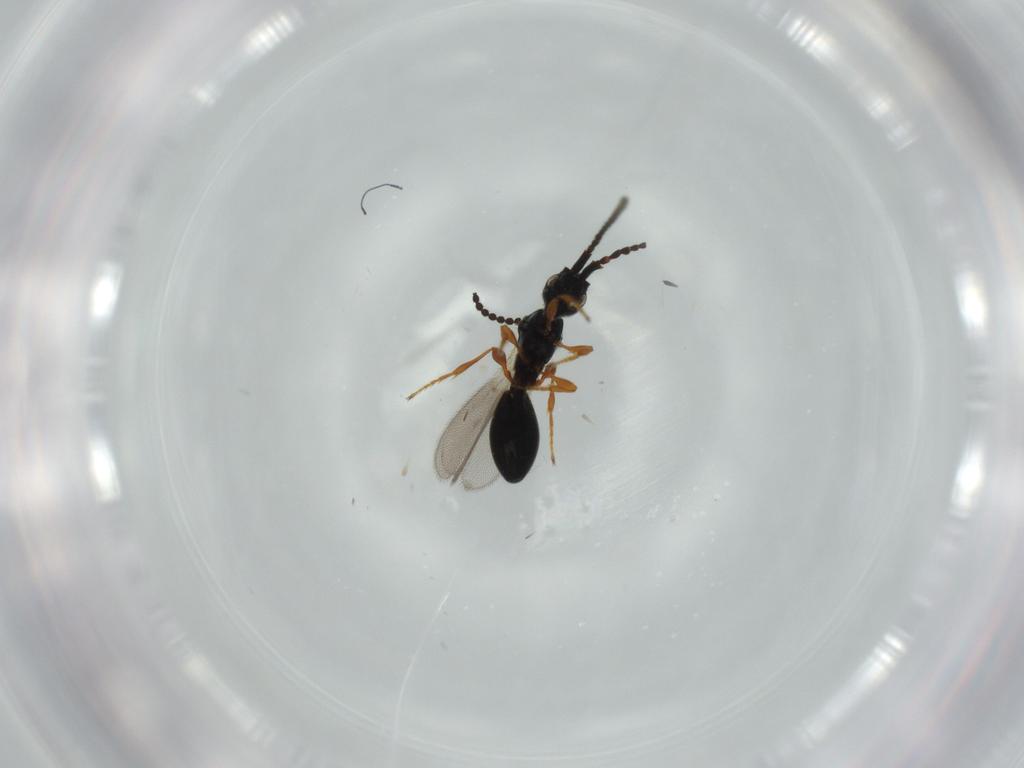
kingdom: Animalia
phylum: Arthropoda
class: Insecta
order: Hymenoptera
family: Diapriidae
